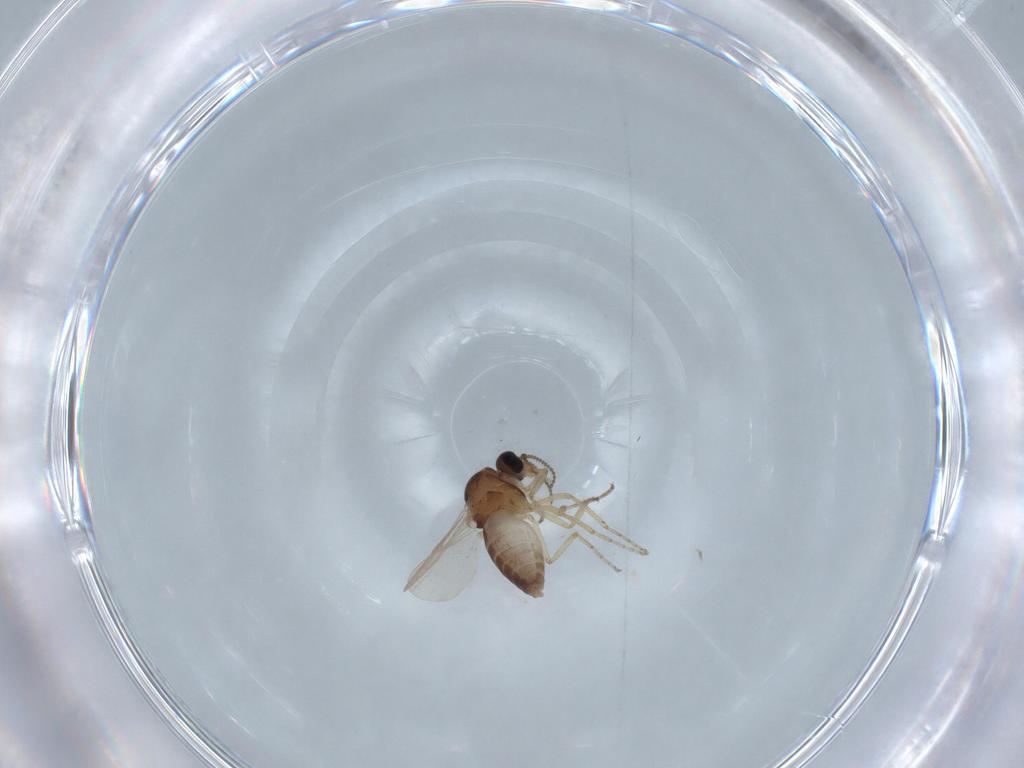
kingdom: Animalia
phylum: Arthropoda
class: Insecta
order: Diptera
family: Ceratopogonidae
